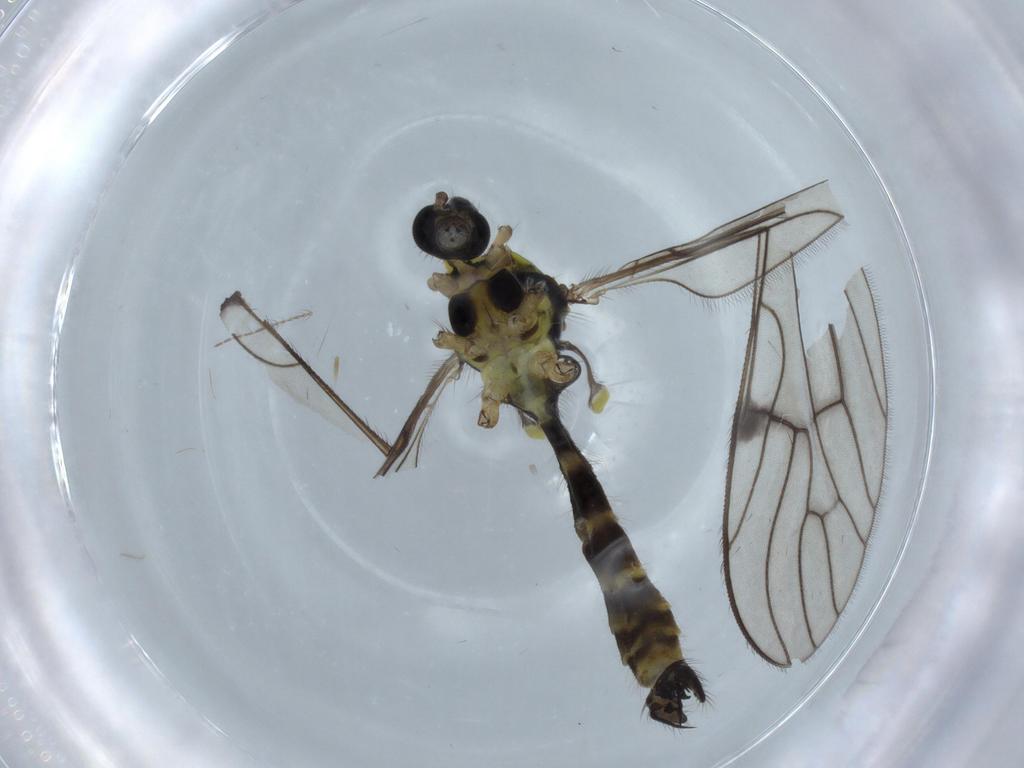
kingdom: Animalia
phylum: Arthropoda
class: Insecta
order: Diptera
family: Limoniidae
